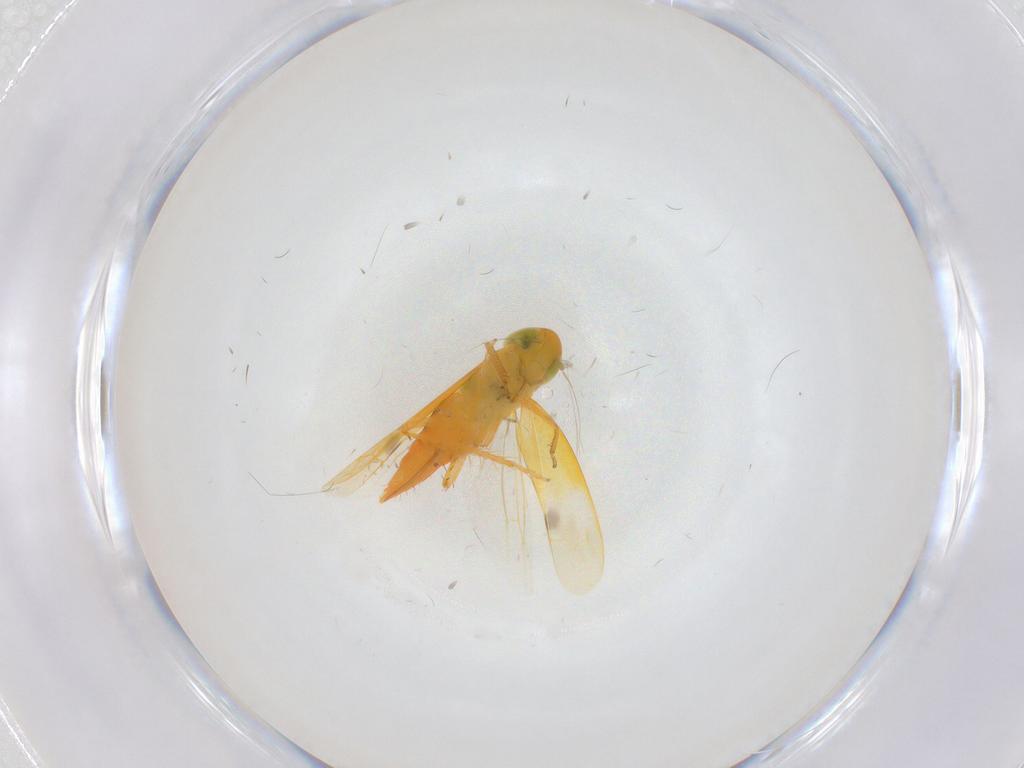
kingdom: Animalia
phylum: Arthropoda
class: Insecta
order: Hemiptera
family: Cicadellidae
